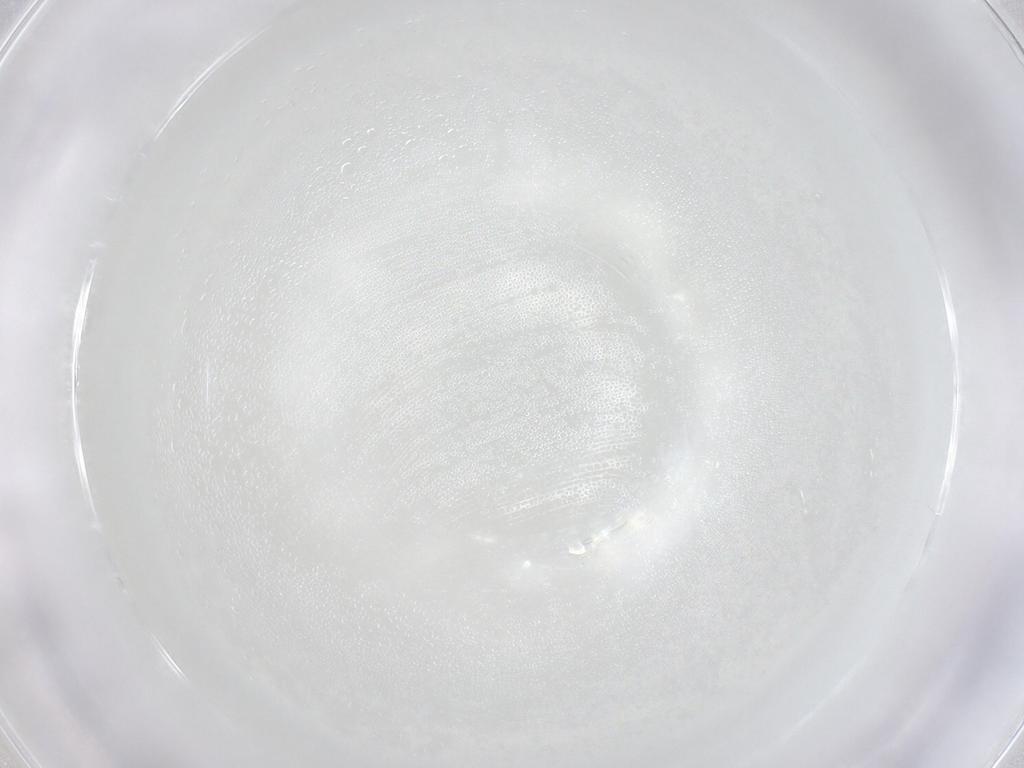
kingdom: Animalia
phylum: Arthropoda
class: Arachnida
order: Trombidiformes
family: Eupodidae
